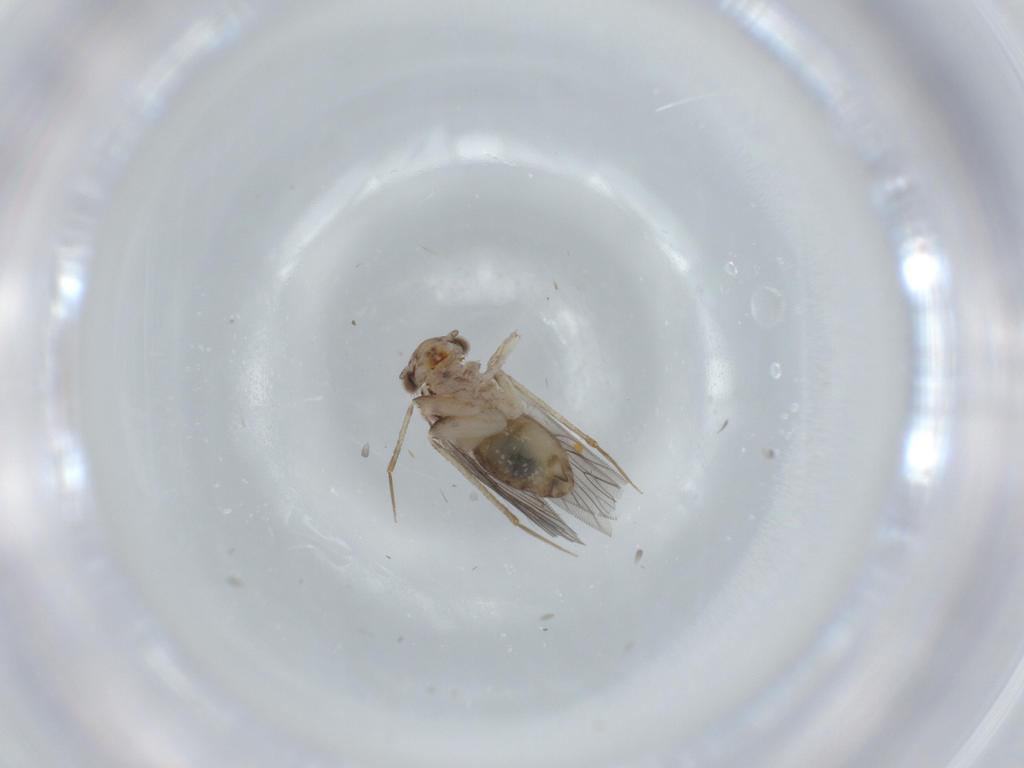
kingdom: Animalia
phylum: Arthropoda
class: Insecta
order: Psocodea
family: Lepidopsocidae
